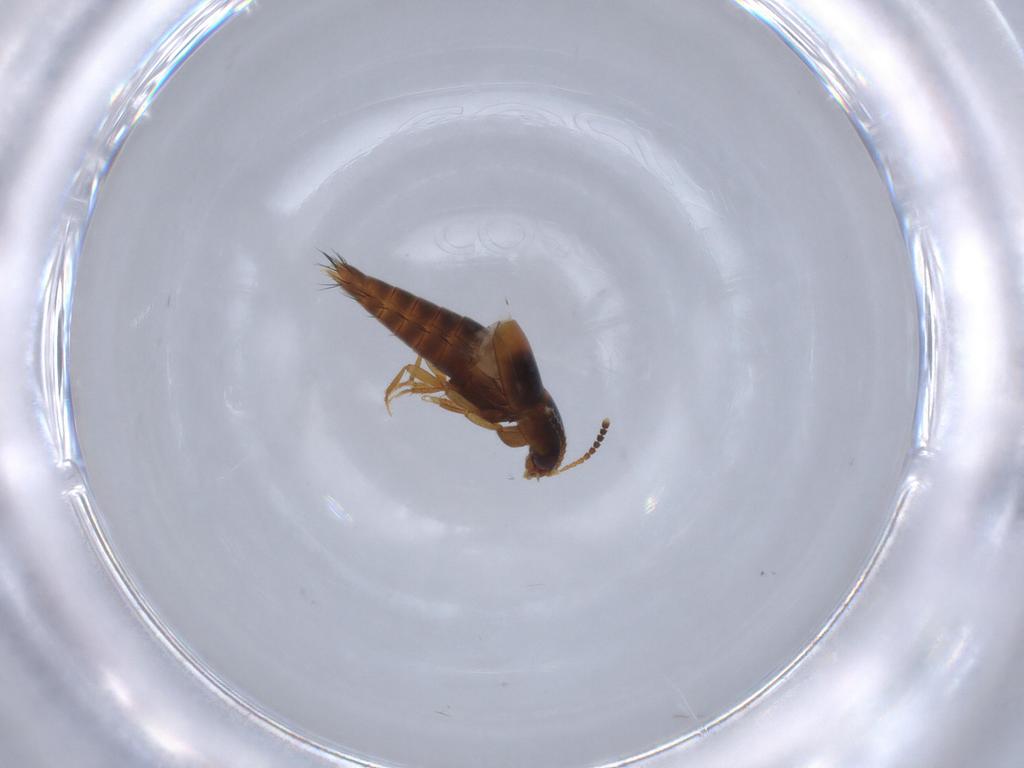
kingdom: Animalia
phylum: Arthropoda
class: Insecta
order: Coleoptera
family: Staphylinidae
